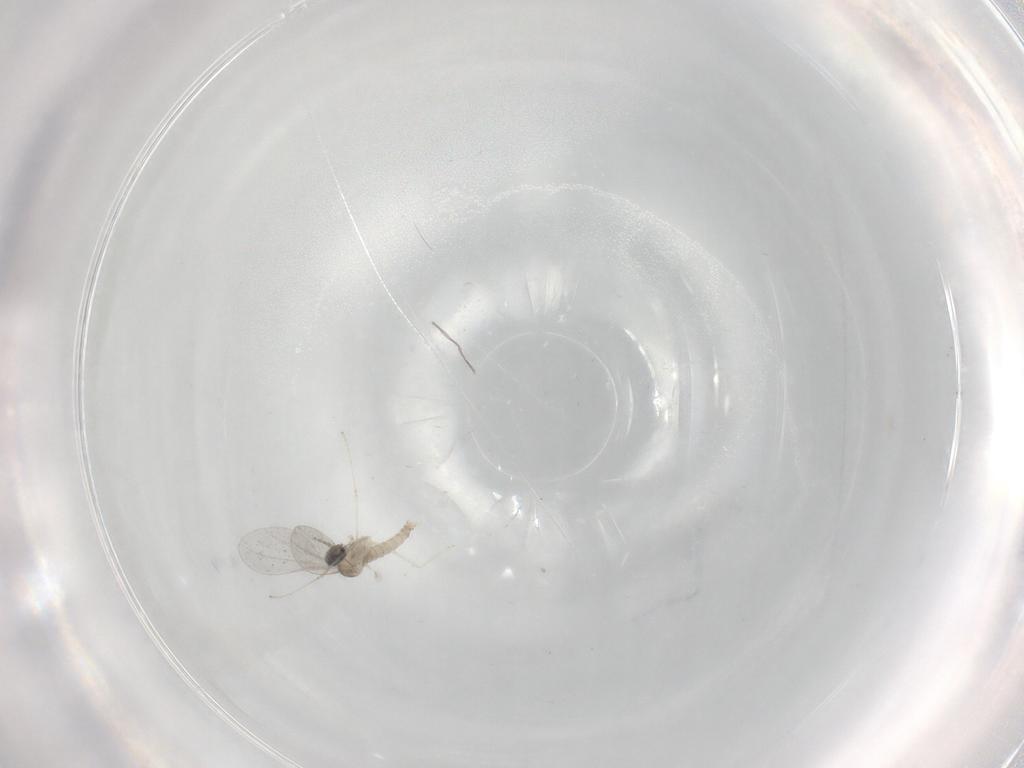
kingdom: Animalia
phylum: Arthropoda
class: Insecta
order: Diptera
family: Cecidomyiidae
